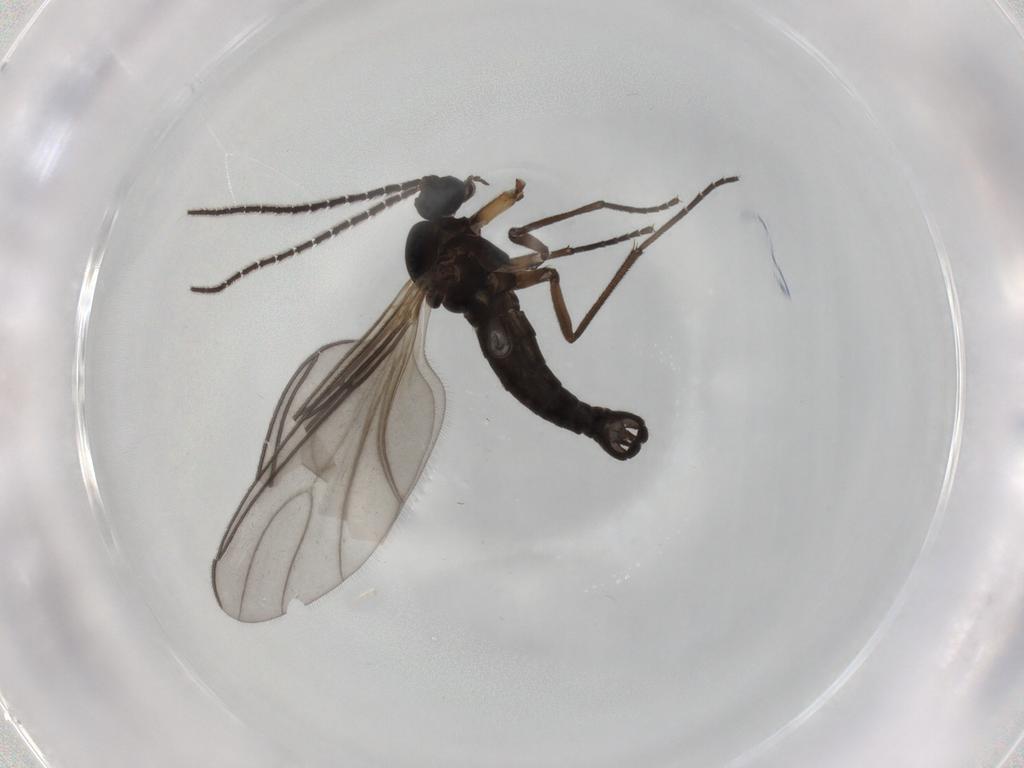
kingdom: Animalia
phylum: Arthropoda
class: Insecta
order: Diptera
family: Sciaridae
